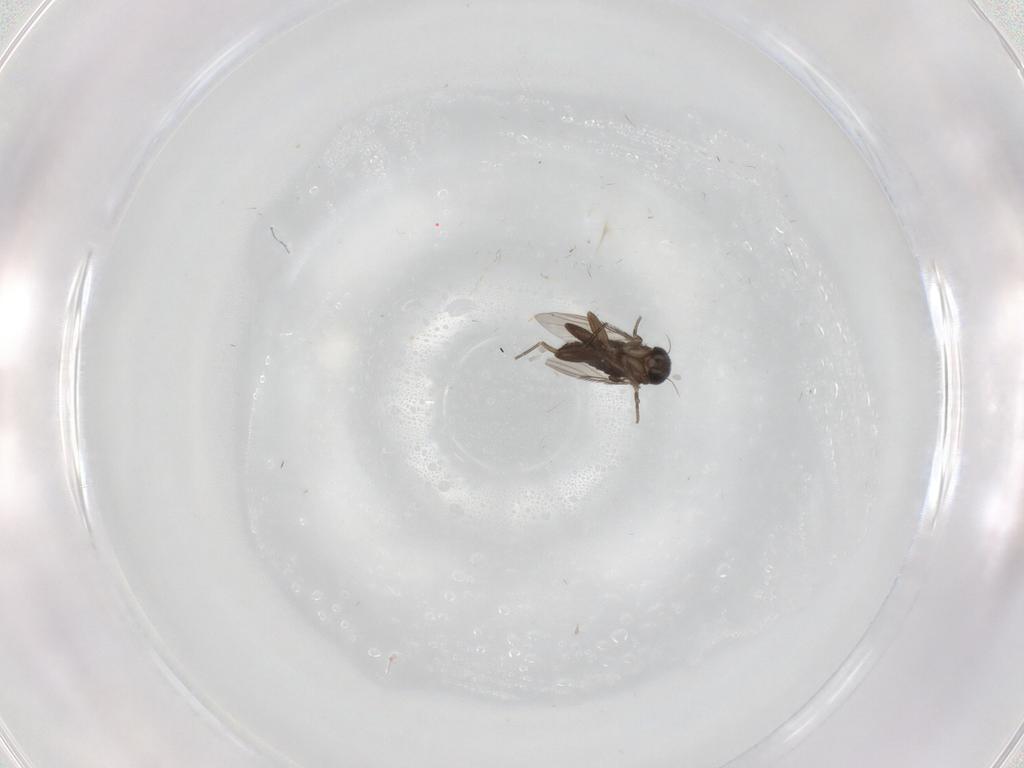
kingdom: Animalia
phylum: Arthropoda
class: Insecta
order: Diptera
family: Phoridae
